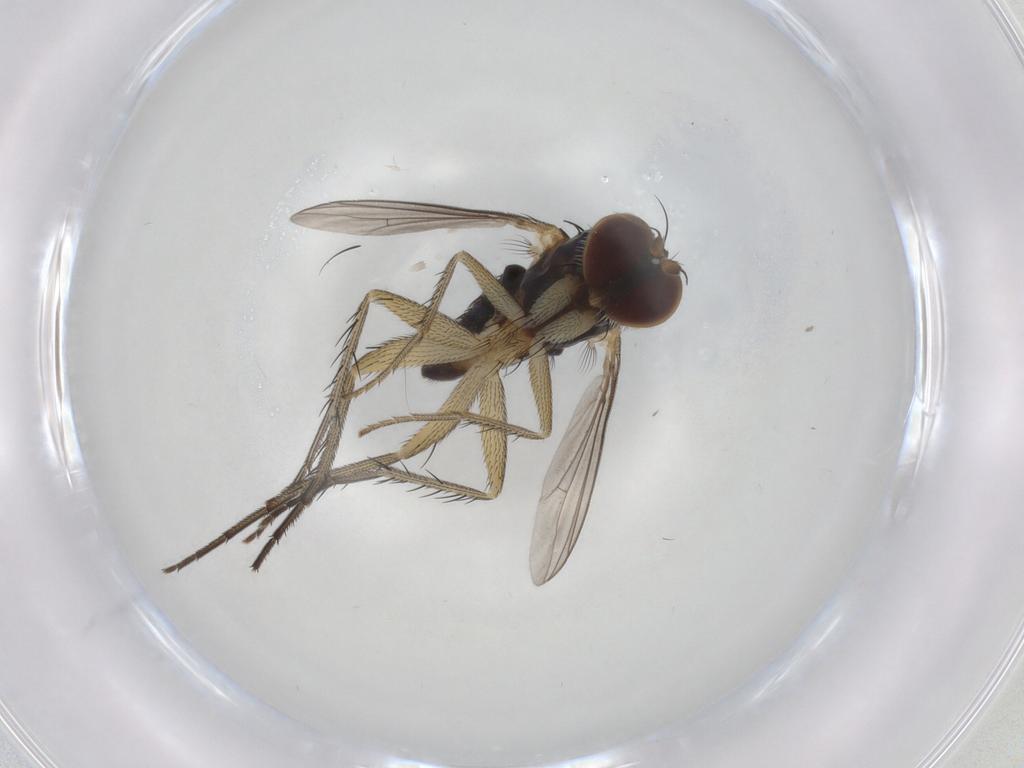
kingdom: Animalia
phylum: Arthropoda
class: Insecta
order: Diptera
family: Dolichopodidae
